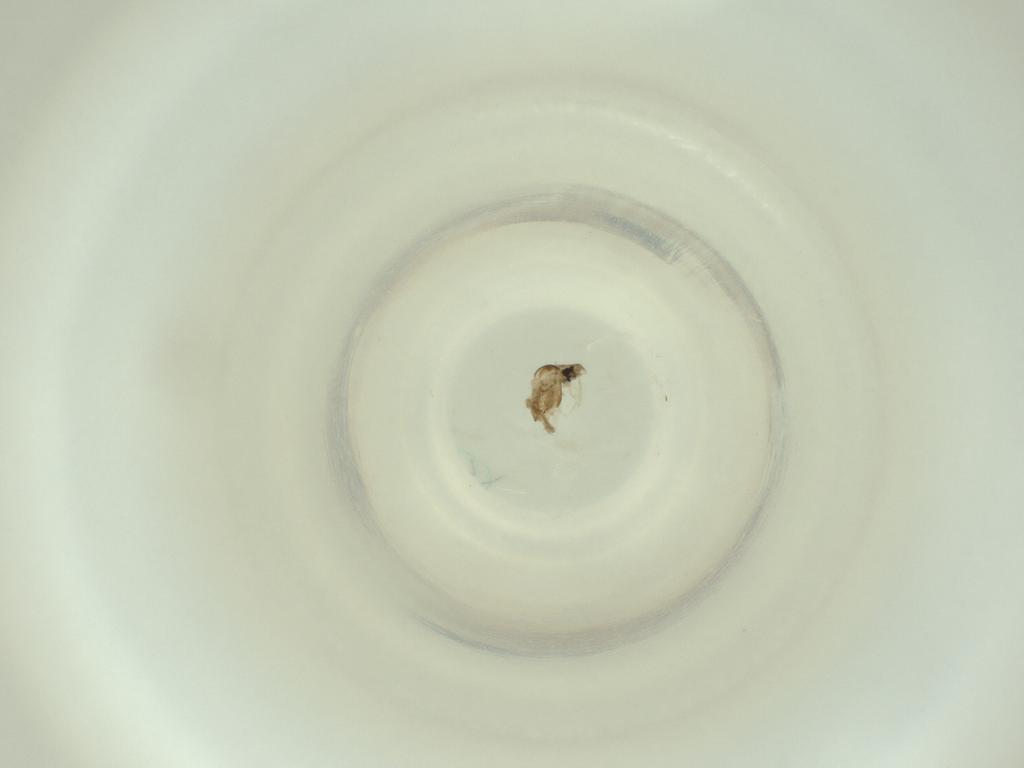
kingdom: Animalia
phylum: Arthropoda
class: Insecta
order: Diptera
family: Cecidomyiidae
